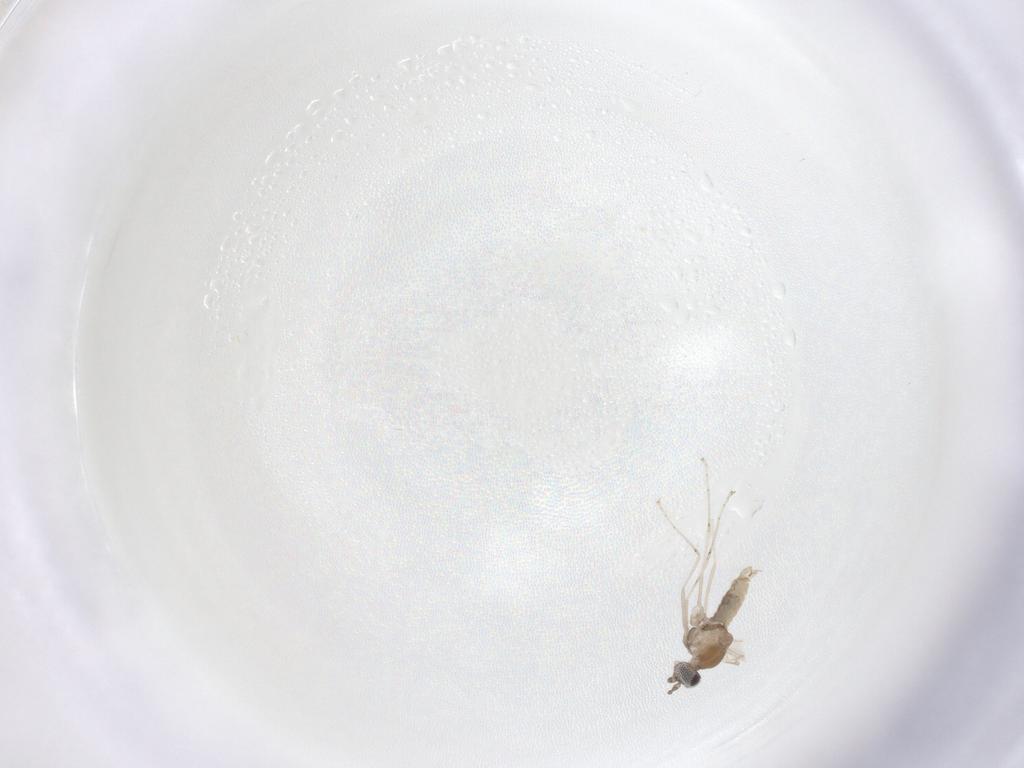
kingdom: Animalia
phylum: Arthropoda
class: Insecta
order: Diptera
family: Cecidomyiidae
